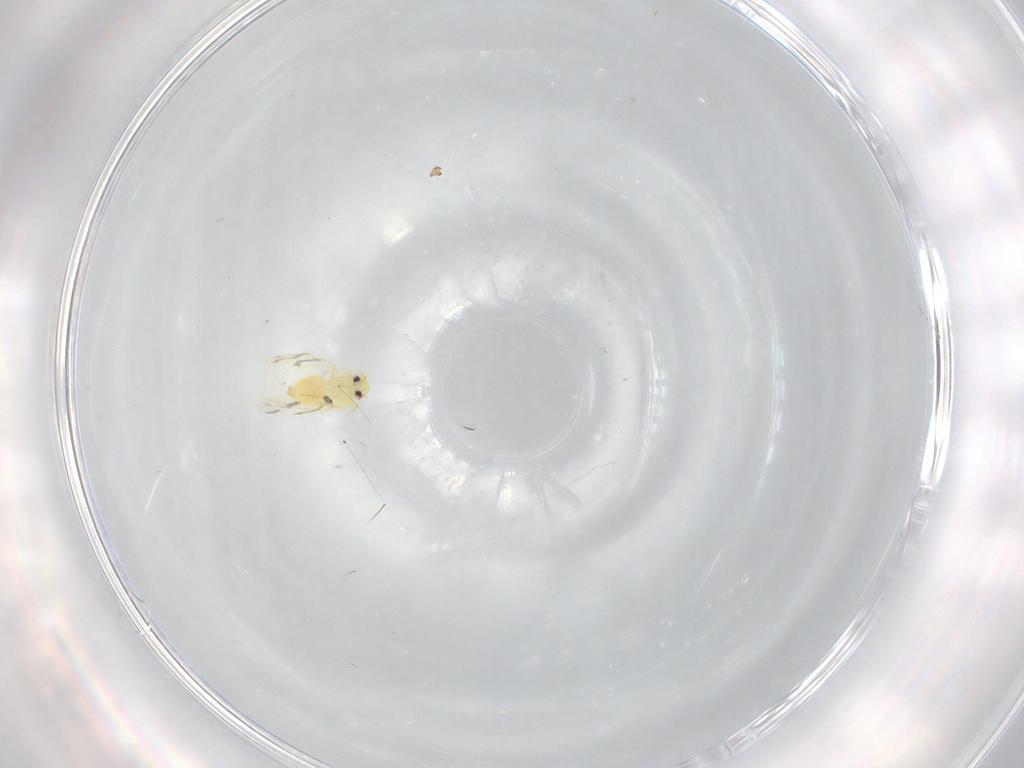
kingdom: Animalia
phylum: Arthropoda
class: Insecta
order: Hemiptera
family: Aleyrodidae
